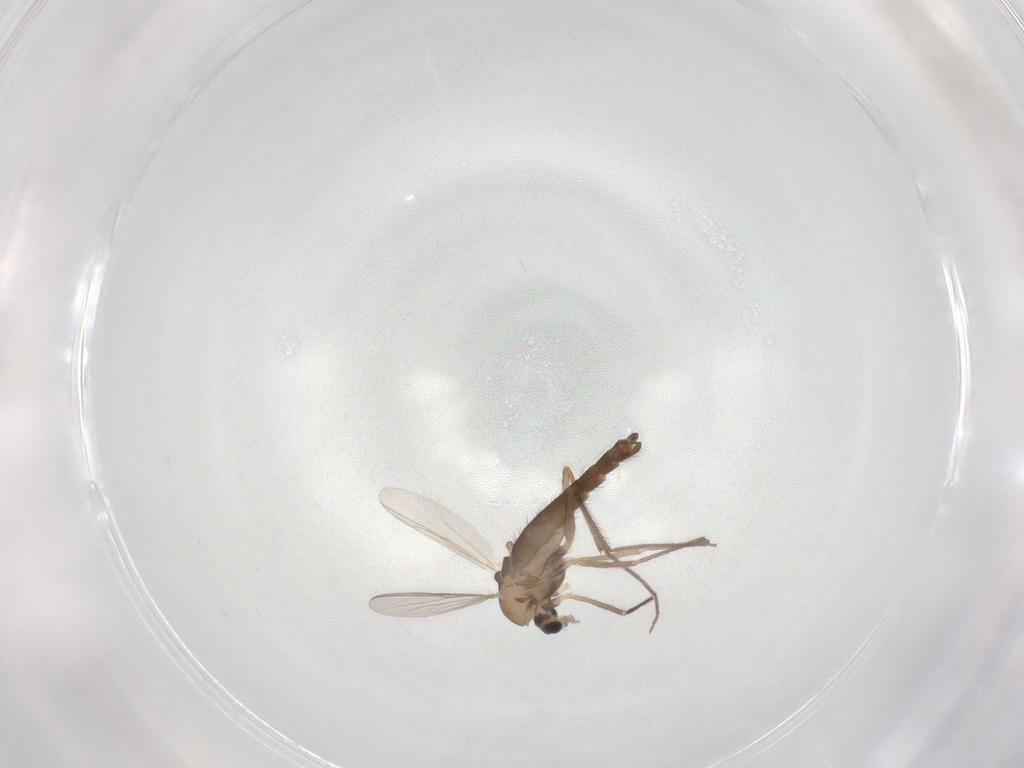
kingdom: Animalia
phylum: Arthropoda
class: Insecta
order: Diptera
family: Chironomidae
